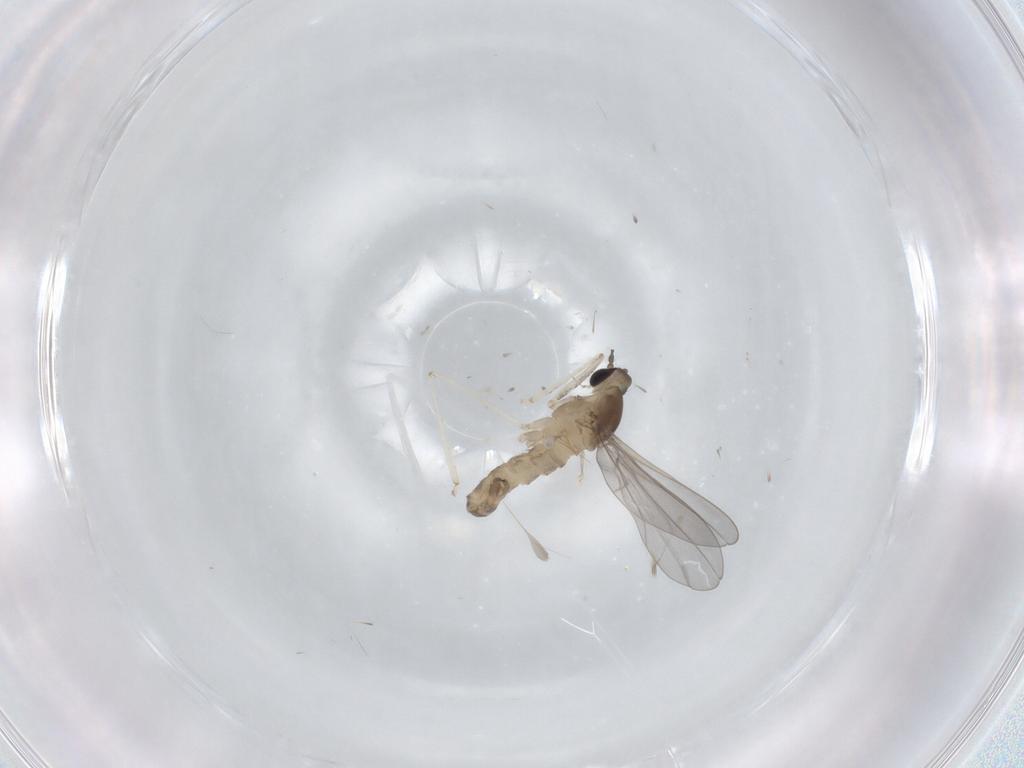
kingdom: Animalia
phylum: Arthropoda
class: Insecta
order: Diptera
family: Cecidomyiidae
